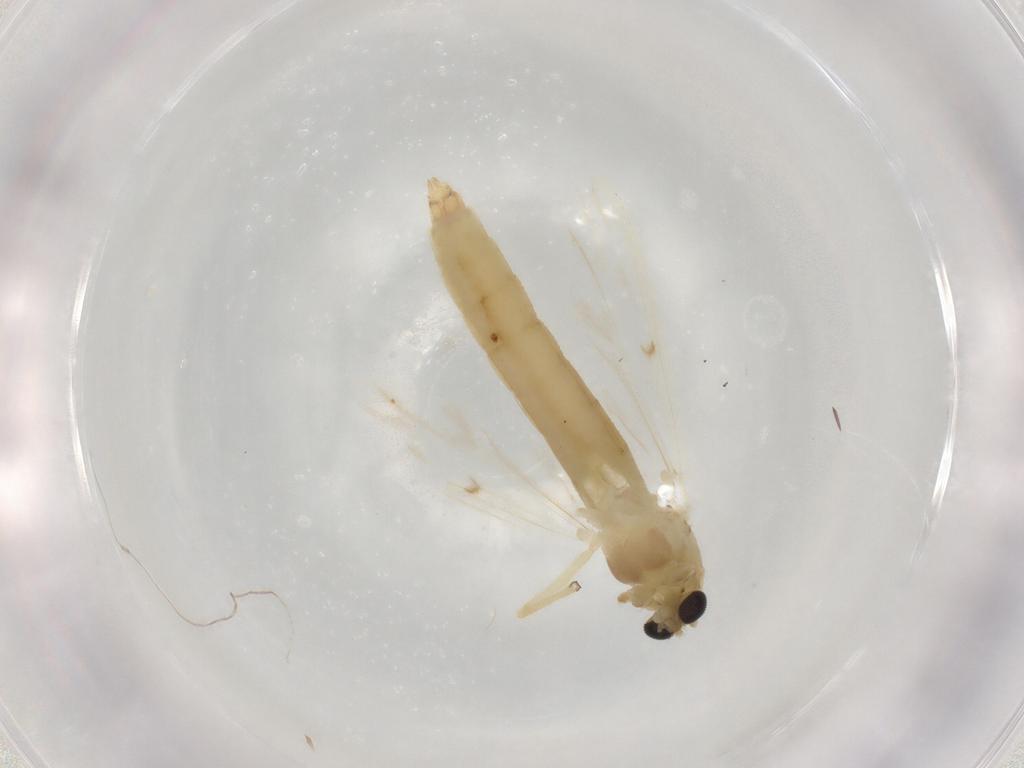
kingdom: Animalia
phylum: Arthropoda
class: Insecta
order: Diptera
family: Chironomidae
